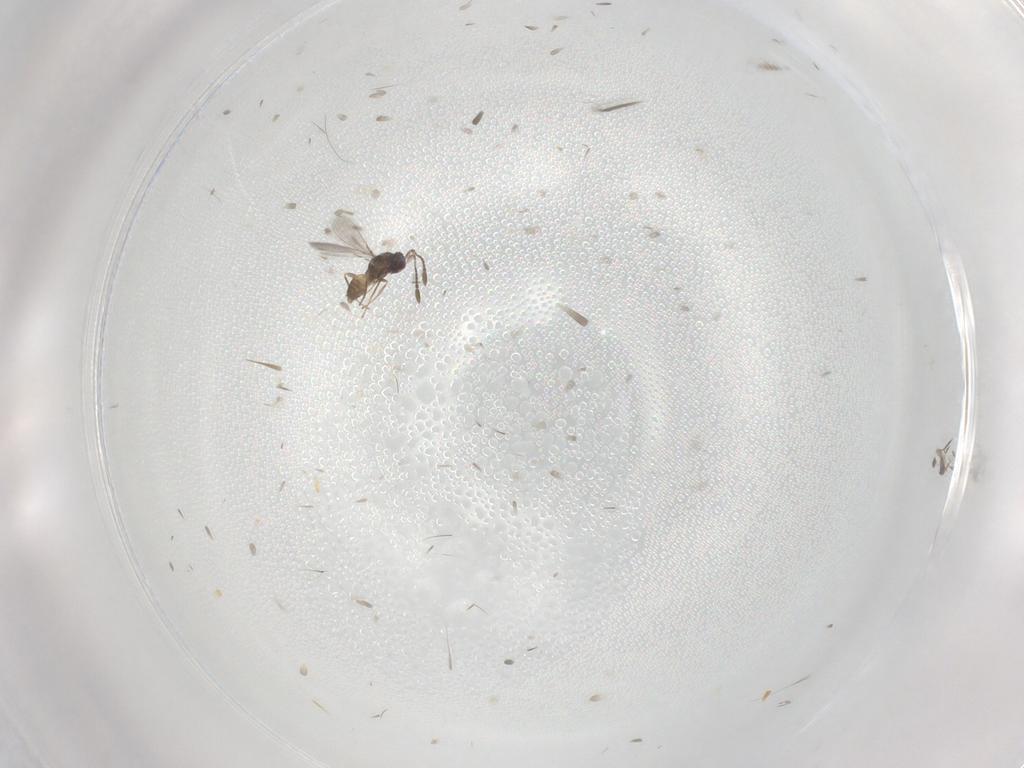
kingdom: Animalia
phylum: Arthropoda
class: Insecta
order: Hymenoptera
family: Mymaridae
